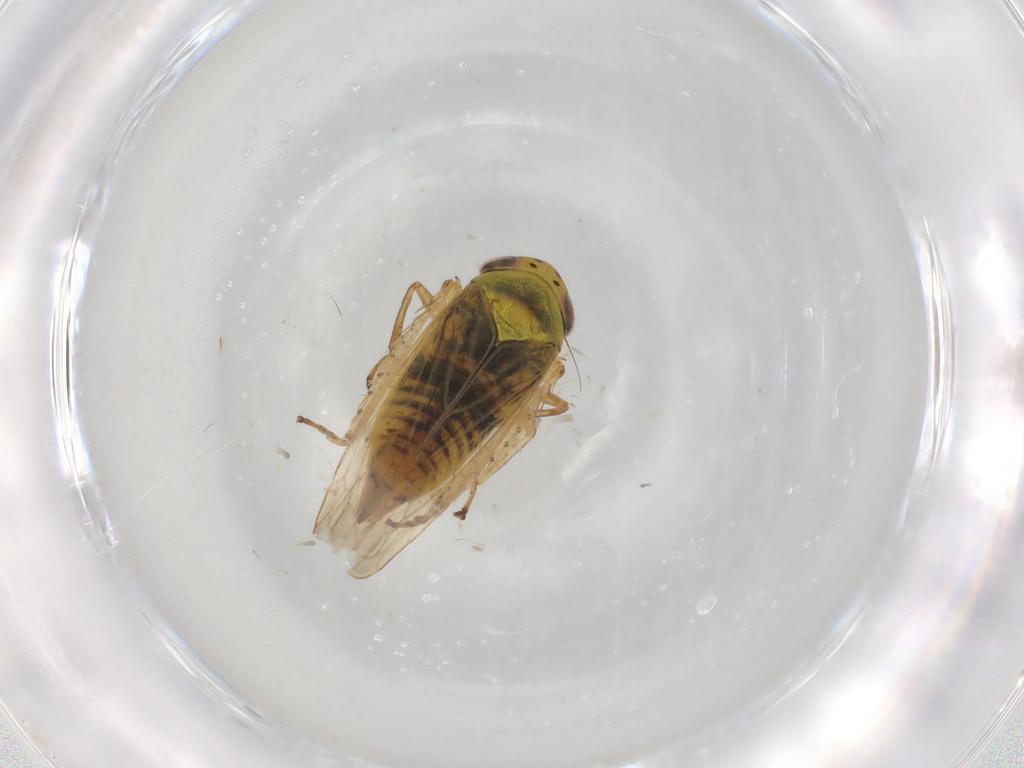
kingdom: Animalia
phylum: Arthropoda
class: Insecta
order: Hemiptera
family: Cicadellidae
